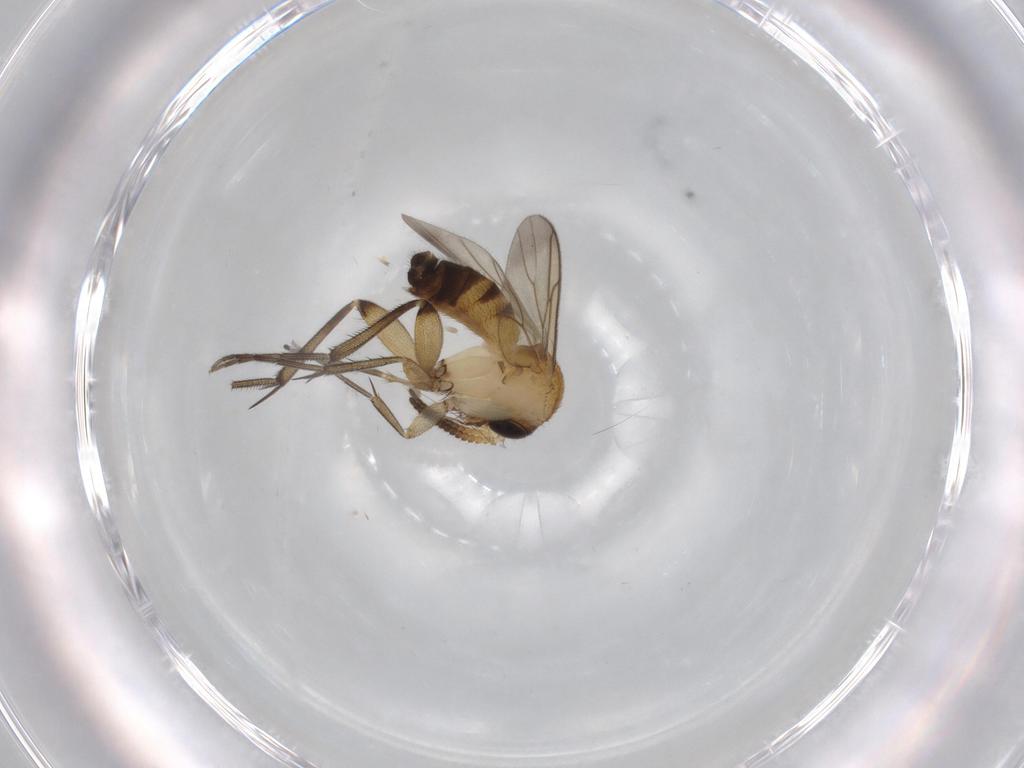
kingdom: Animalia
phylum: Arthropoda
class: Insecta
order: Diptera
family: Mycetophilidae
